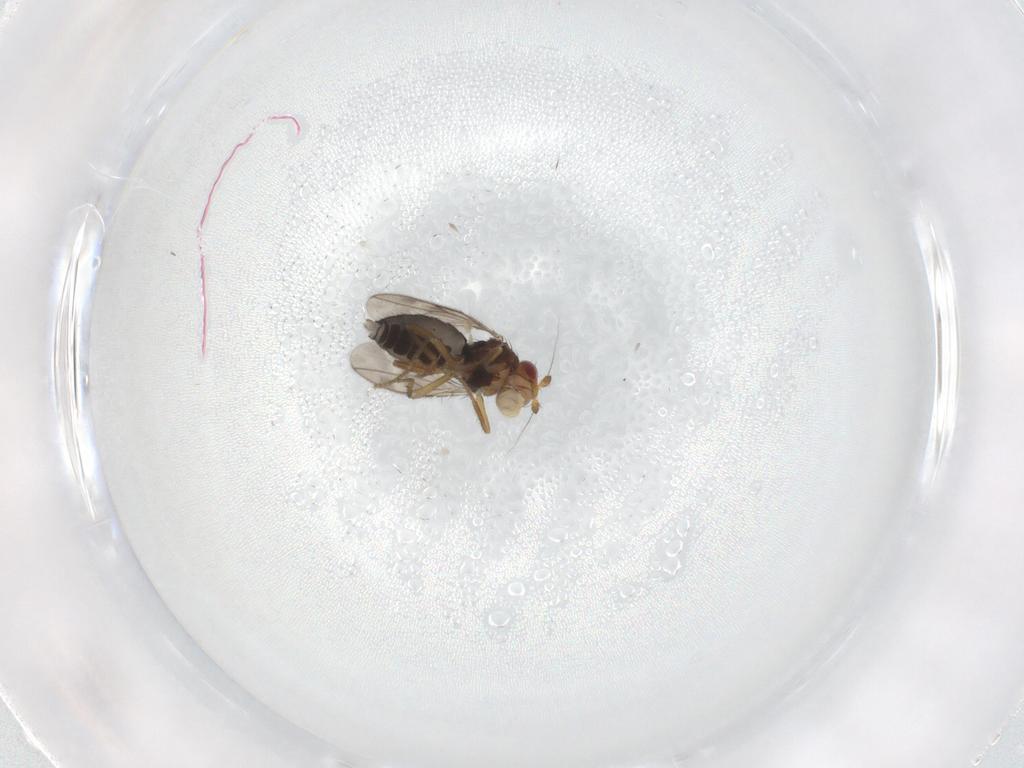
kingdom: Animalia
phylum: Arthropoda
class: Insecta
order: Diptera
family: Sphaeroceridae
